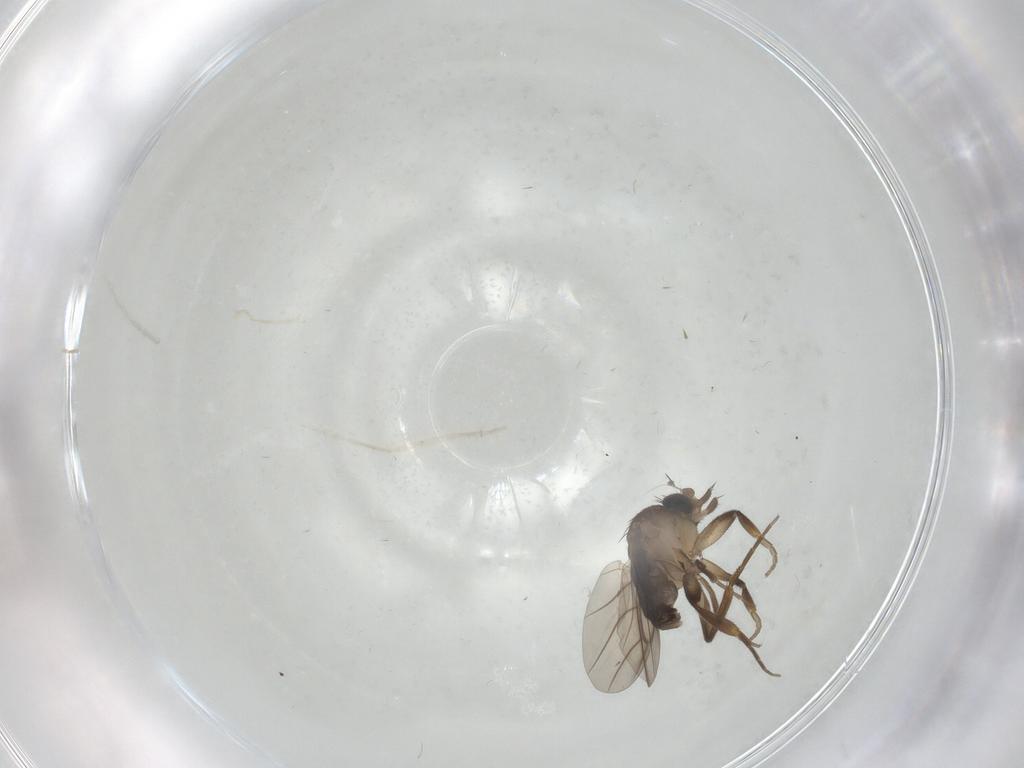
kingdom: Animalia
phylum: Arthropoda
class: Insecta
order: Diptera
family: Phoridae
